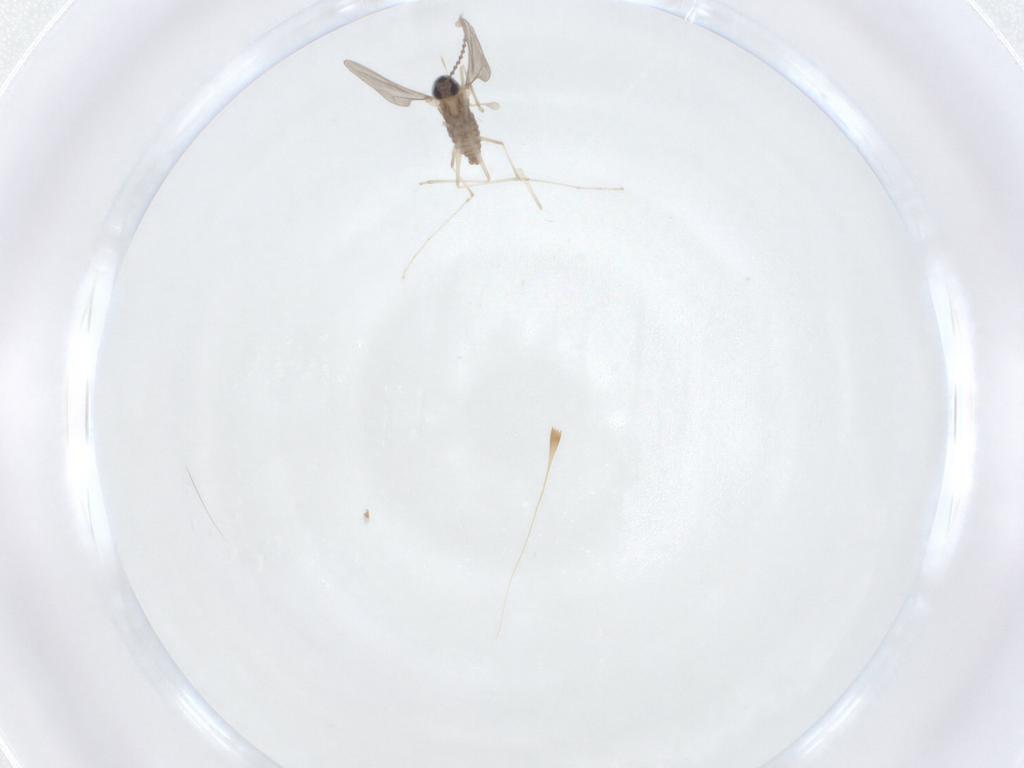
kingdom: Animalia
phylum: Arthropoda
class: Insecta
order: Diptera
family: Cecidomyiidae
